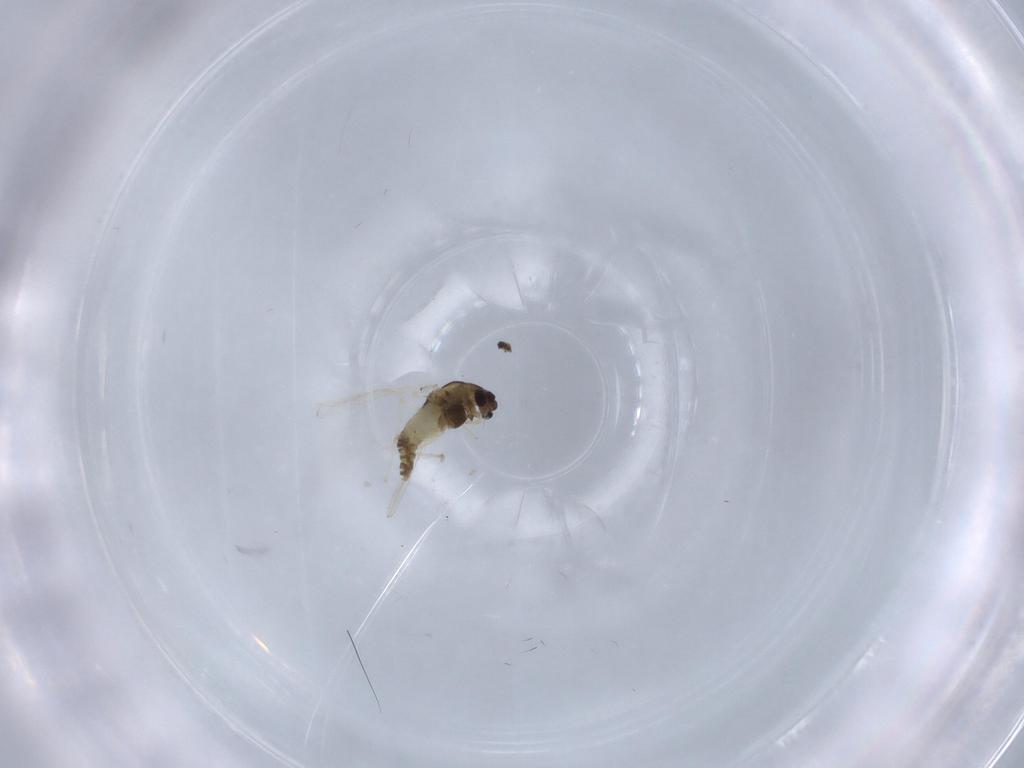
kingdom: Animalia
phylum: Arthropoda
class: Insecta
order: Diptera
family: Chironomidae
